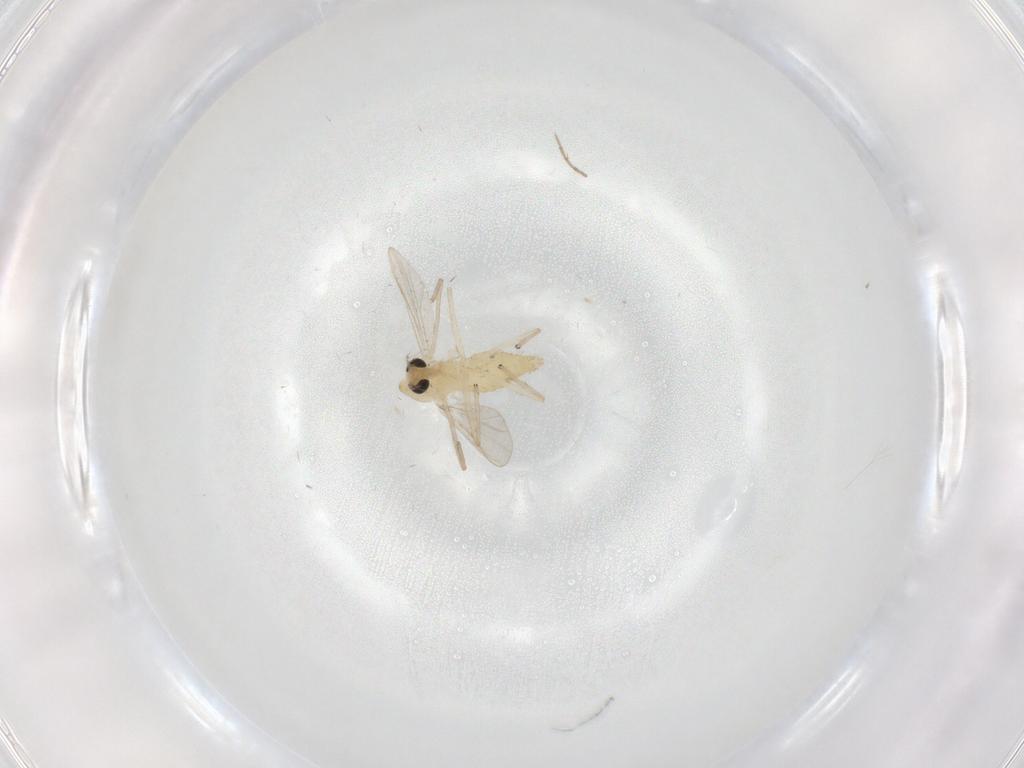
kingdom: Animalia
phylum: Arthropoda
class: Insecta
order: Diptera
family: Chironomidae
